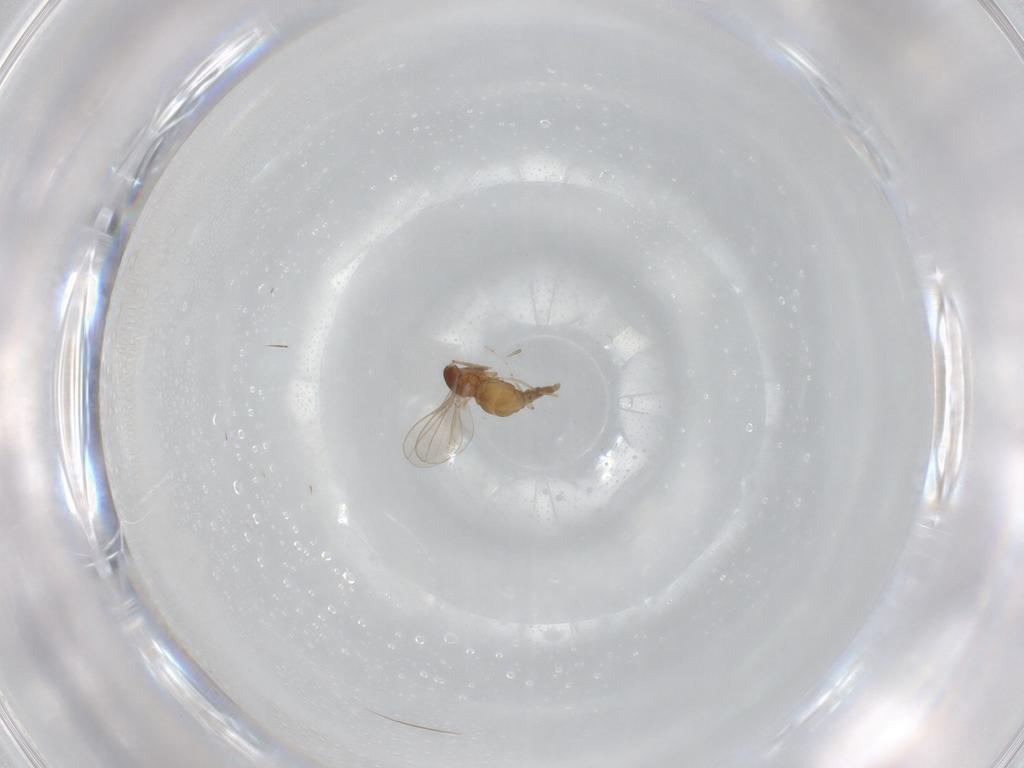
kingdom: Animalia
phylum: Arthropoda
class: Insecta
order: Diptera
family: Cecidomyiidae
